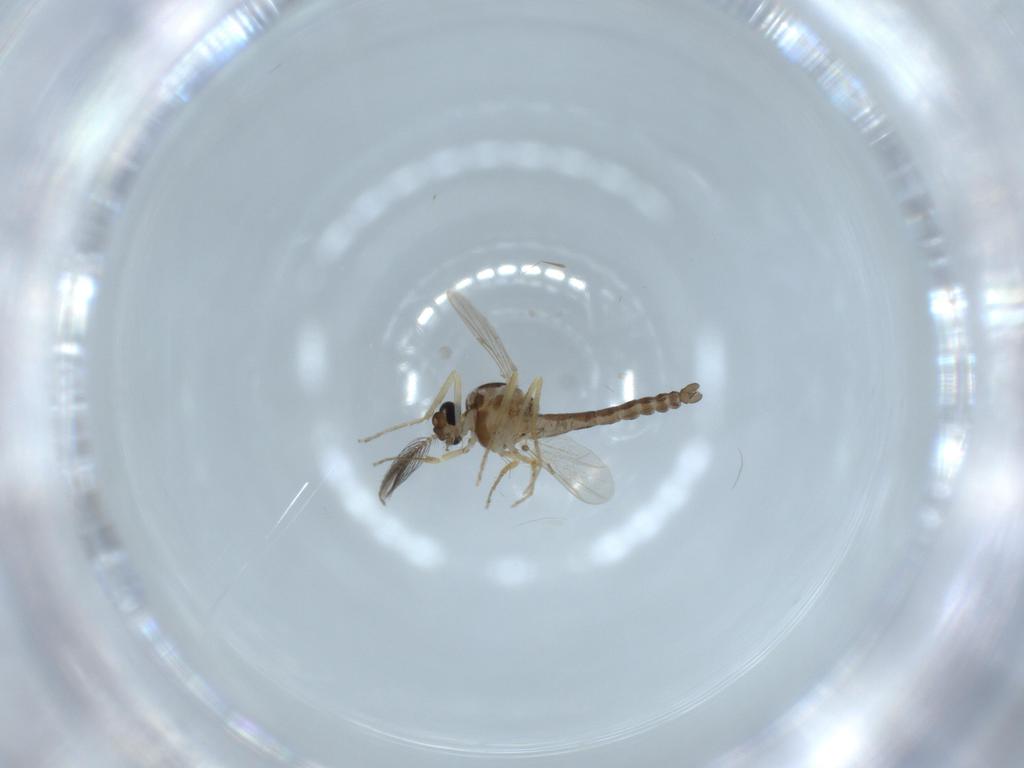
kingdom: Animalia
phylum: Arthropoda
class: Insecta
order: Diptera
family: Ceratopogonidae
